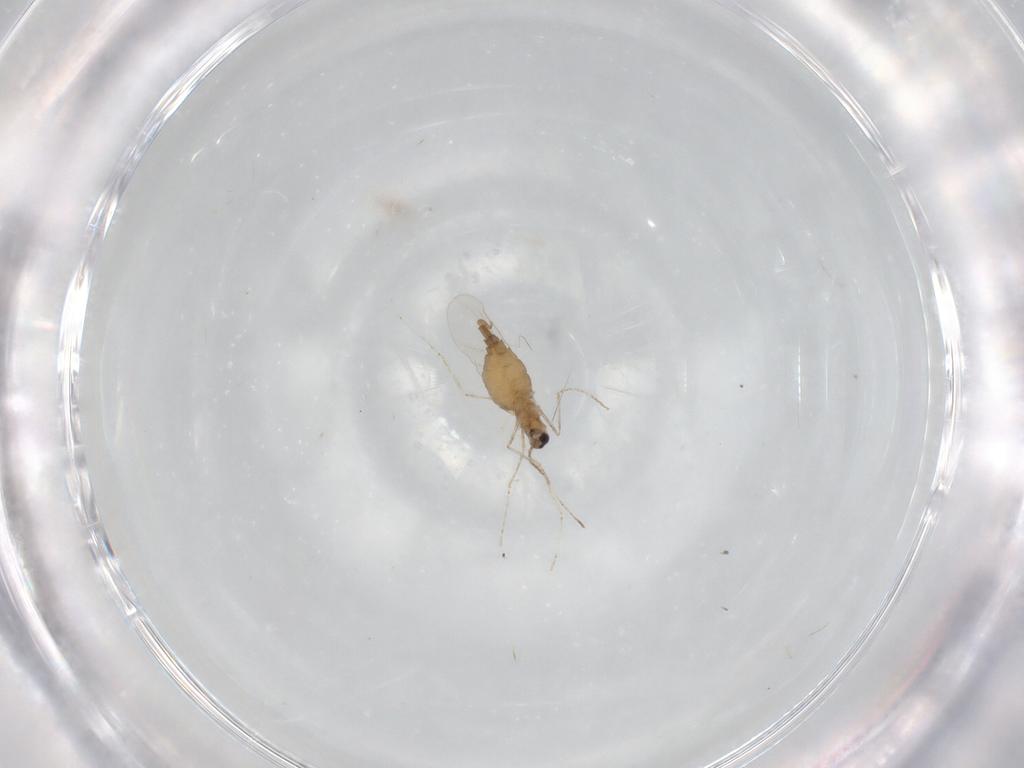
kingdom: Animalia
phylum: Arthropoda
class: Insecta
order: Diptera
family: Cecidomyiidae
